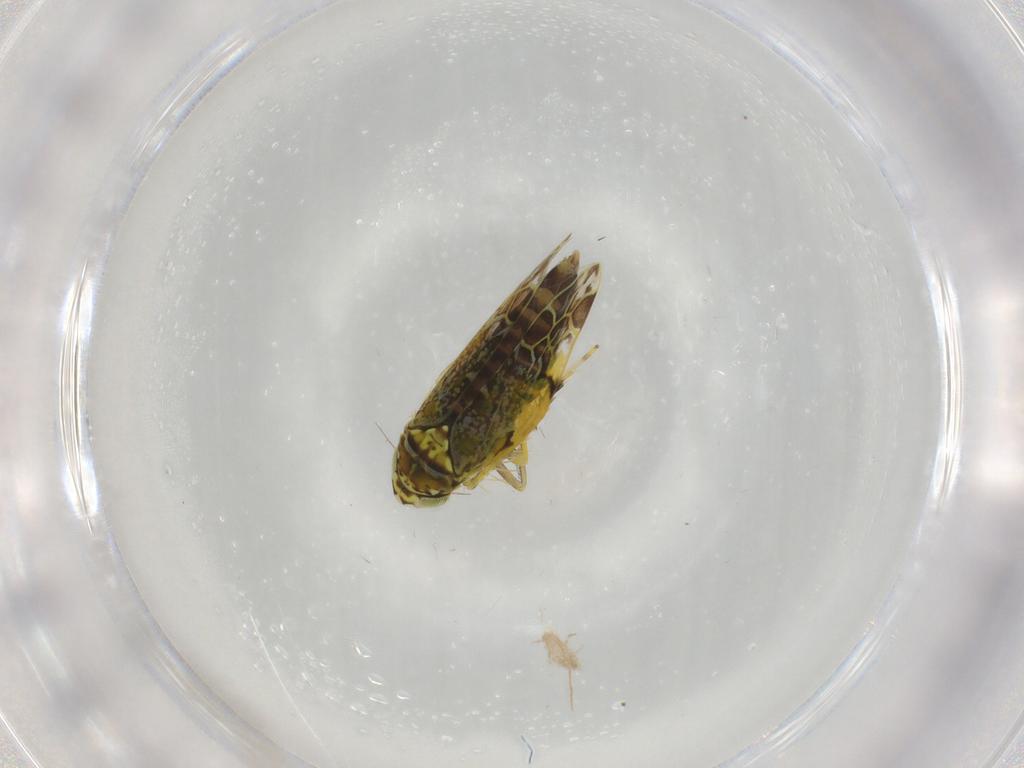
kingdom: Animalia
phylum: Arthropoda
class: Insecta
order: Hemiptera
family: Cicadellidae
